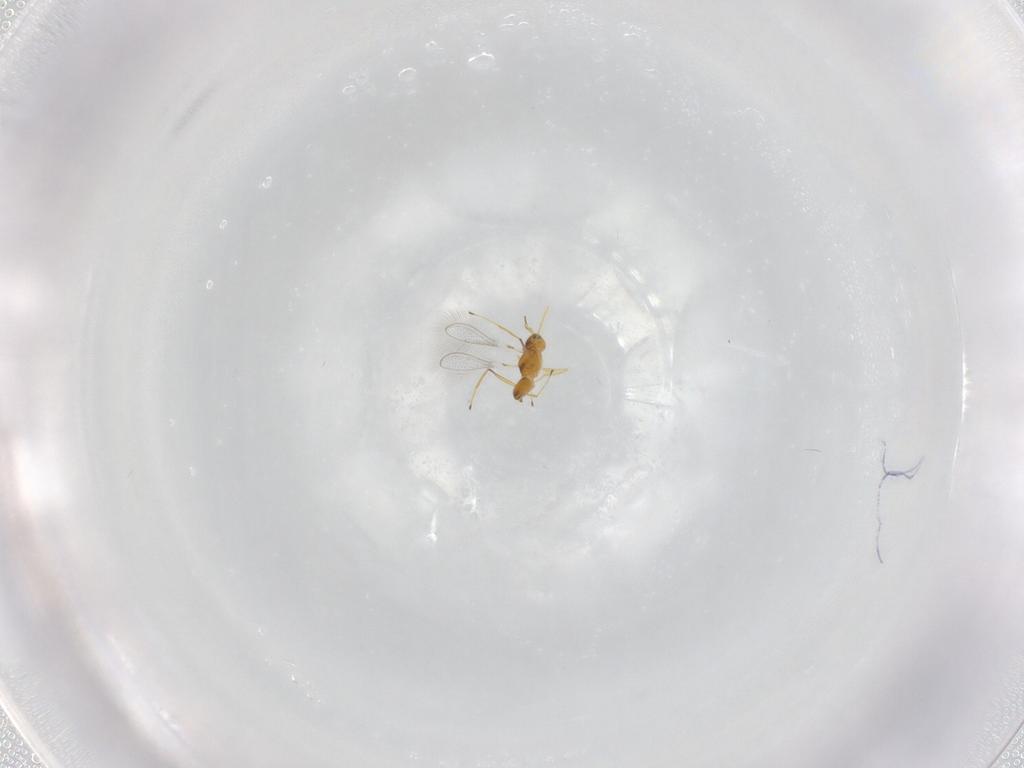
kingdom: Animalia
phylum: Arthropoda
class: Insecta
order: Hymenoptera
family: Mymaridae
